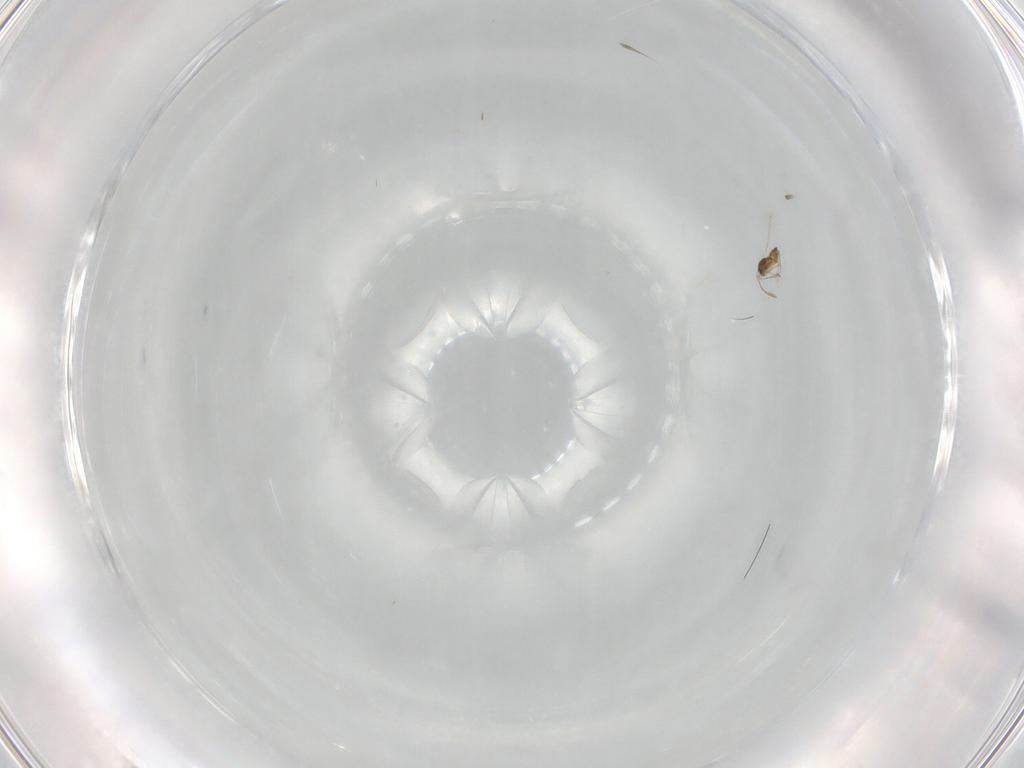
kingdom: Animalia
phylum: Arthropoda
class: Insecta
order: Hymenoptera
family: Mymaridae
